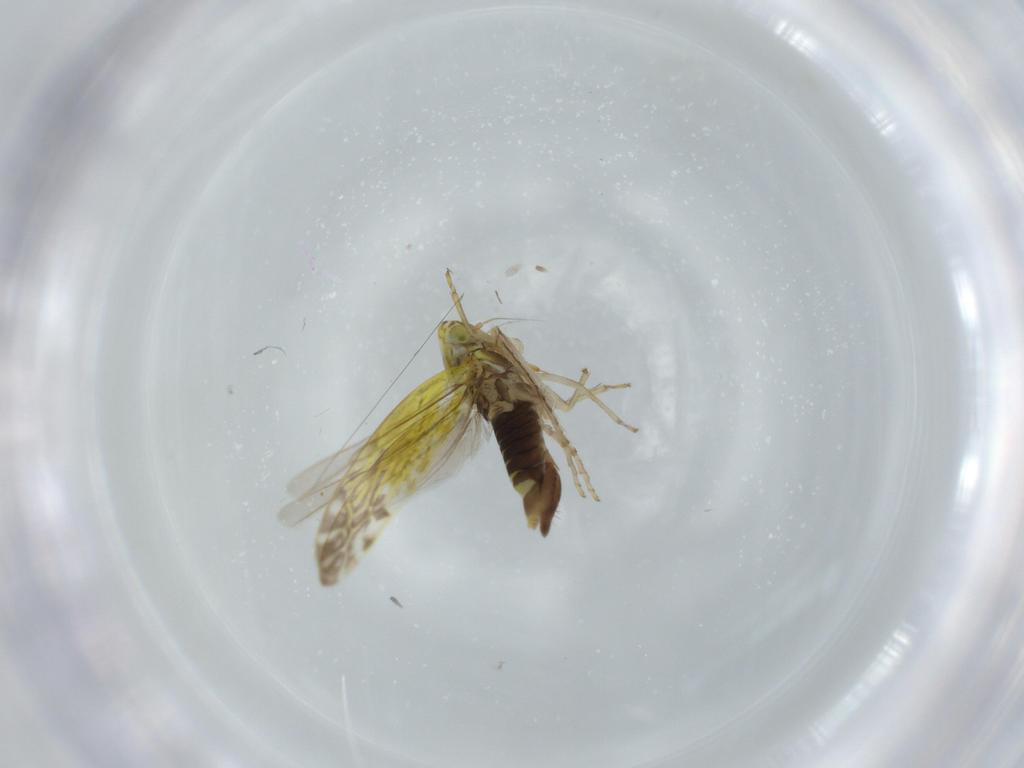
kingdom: Animalia
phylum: Arthropoda
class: Insecta
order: Hemiptera
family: Cicadellidae
